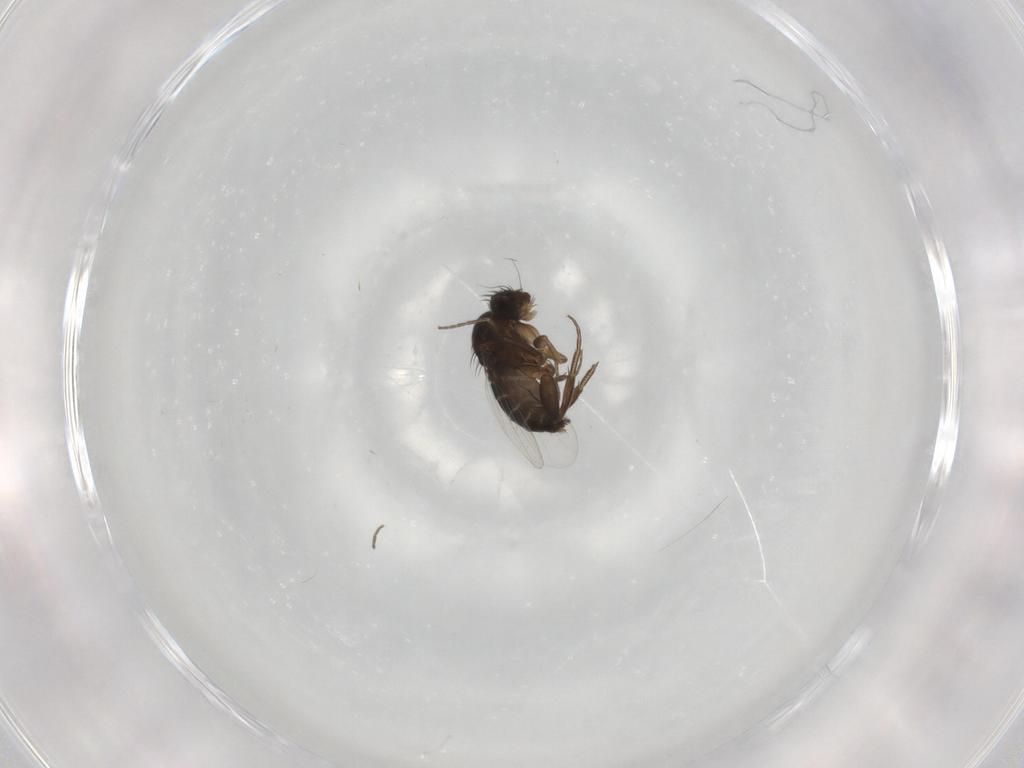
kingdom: Animalia
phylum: Arthropoda
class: Insecta
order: Diptera
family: Phoridae
